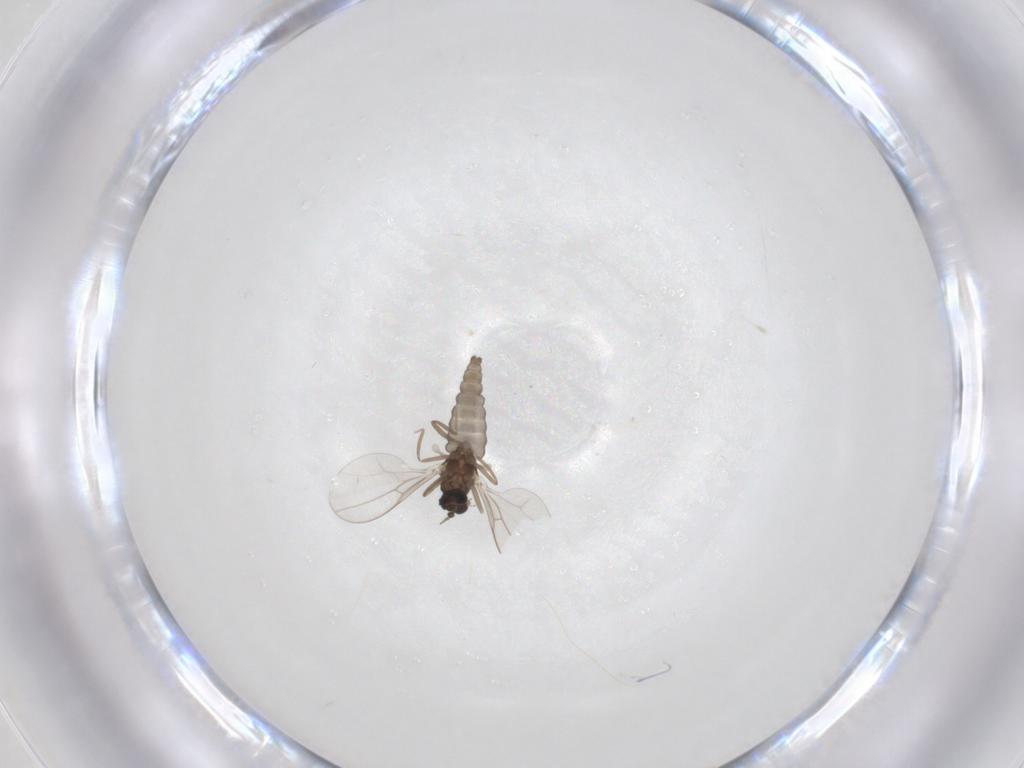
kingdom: Animalia
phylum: Arthropoda
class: Insecta
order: Diptera
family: Cecidomyiidae
